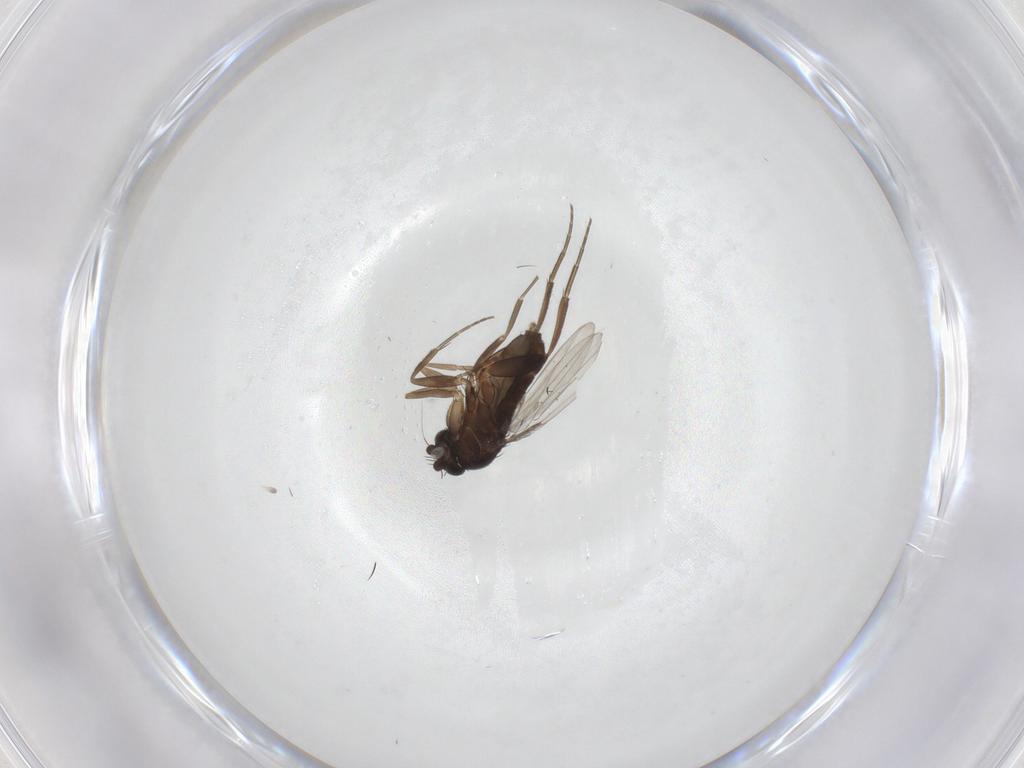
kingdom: Animalia
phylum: Arthropoda
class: Insecta
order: Diptera
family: Phoridae
